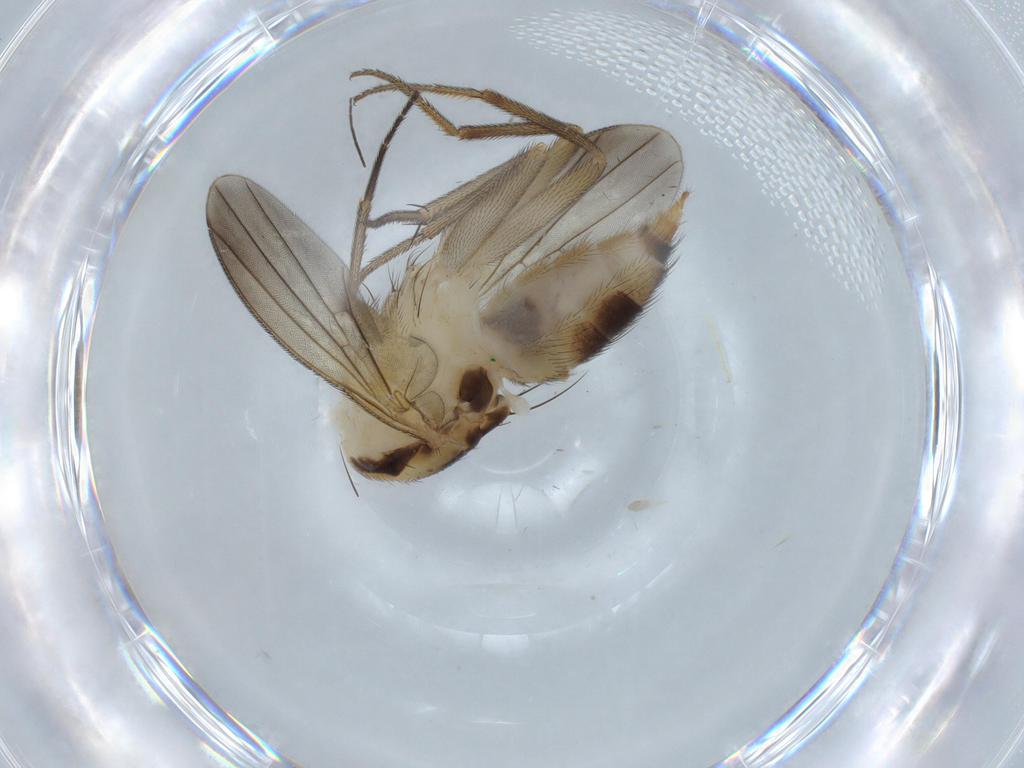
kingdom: Animalia
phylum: Arthropoda
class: Insecta
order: Diptera
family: Clusiidae
